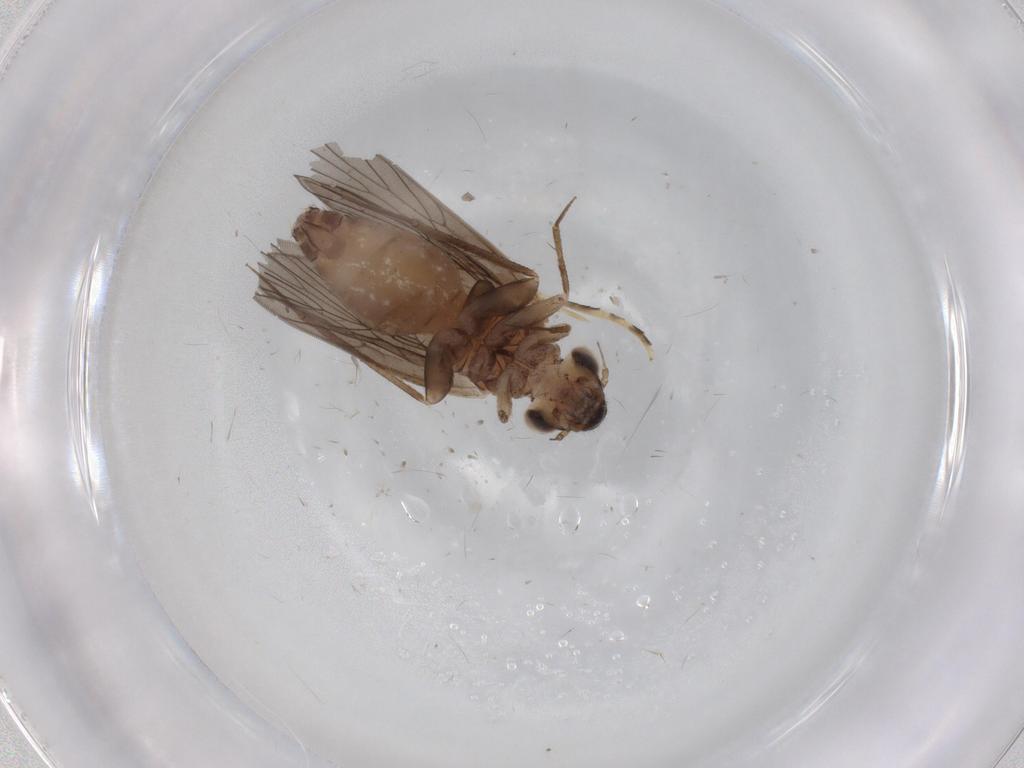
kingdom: Animalia
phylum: Arthropoda
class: Insecta
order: Psocodea
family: Lepidopsocidae
